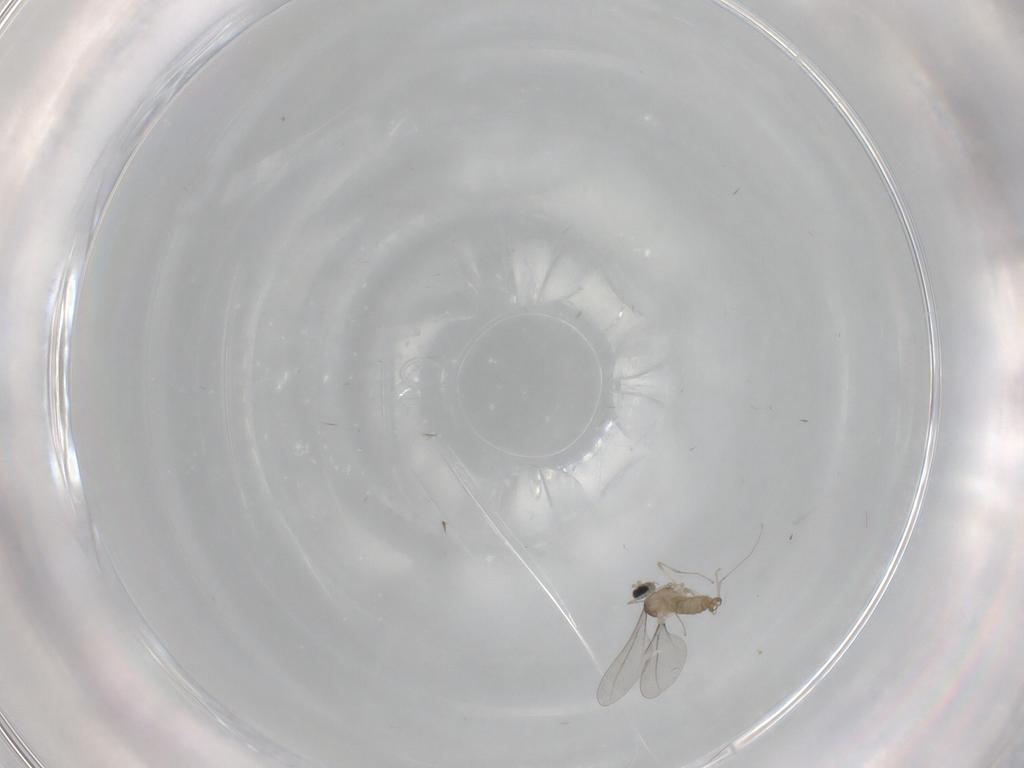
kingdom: Animalia
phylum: Arthropoda
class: Insecta
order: Diptera
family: Cecidomyiidae
